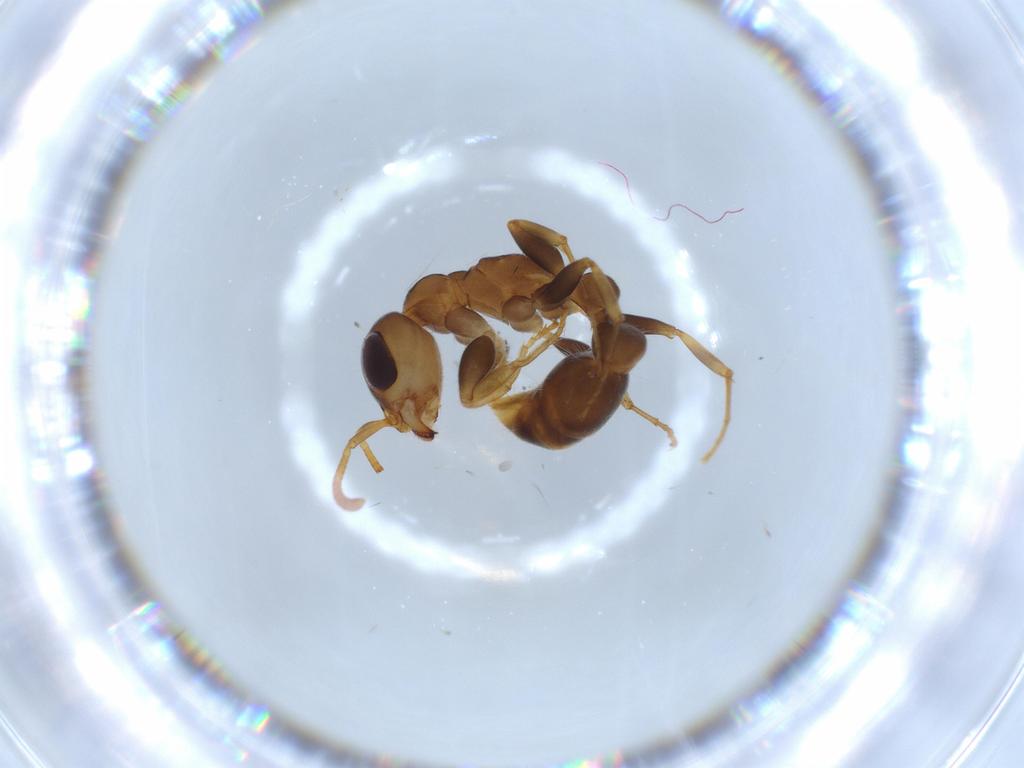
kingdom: Animalia
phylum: Arthropoda
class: Insecta
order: Hymenoptera
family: Formicidae
